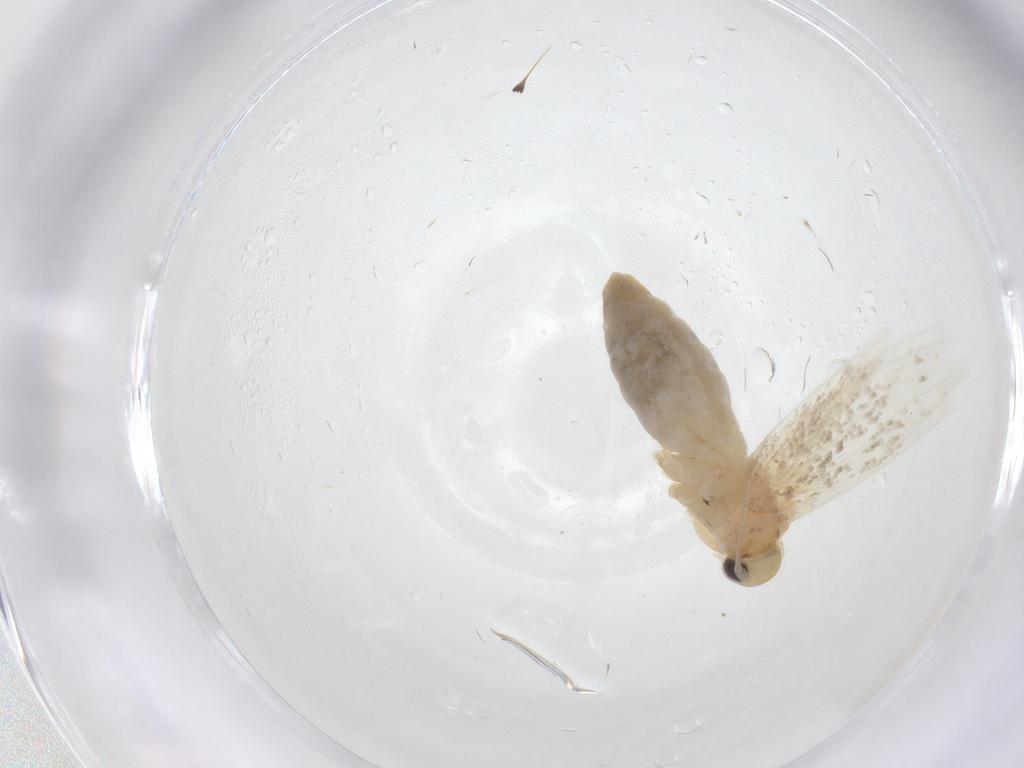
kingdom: Animalia
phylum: Arthropoda
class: Insecta
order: Lepidoptera
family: Erebidae
